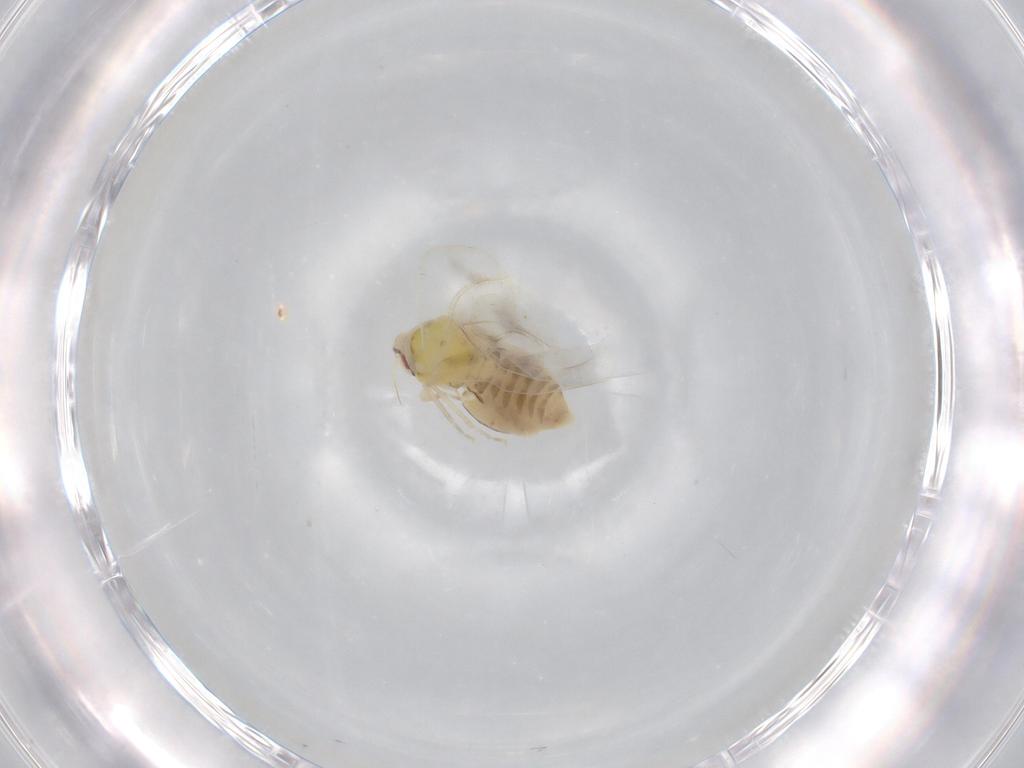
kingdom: Animalia
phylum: Arthropoda
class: Insecta
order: Hemiptera
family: Aleyrodidae
